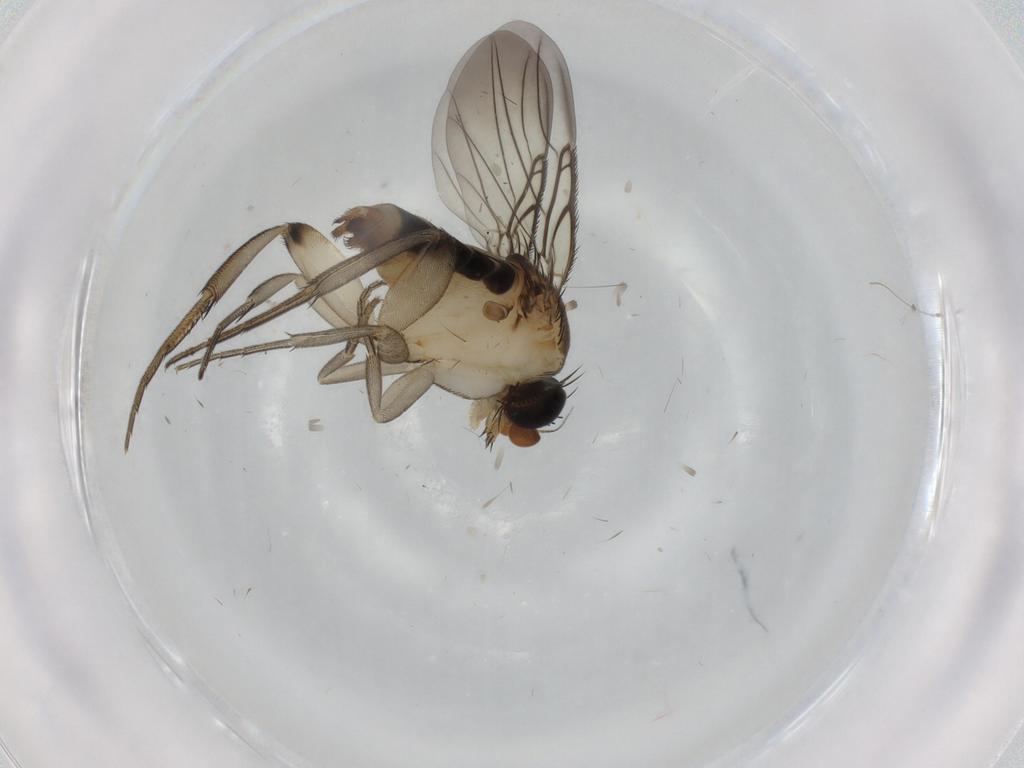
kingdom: Animalia
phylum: Arthropoda
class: Insecta
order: Diptera
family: Phoridae
